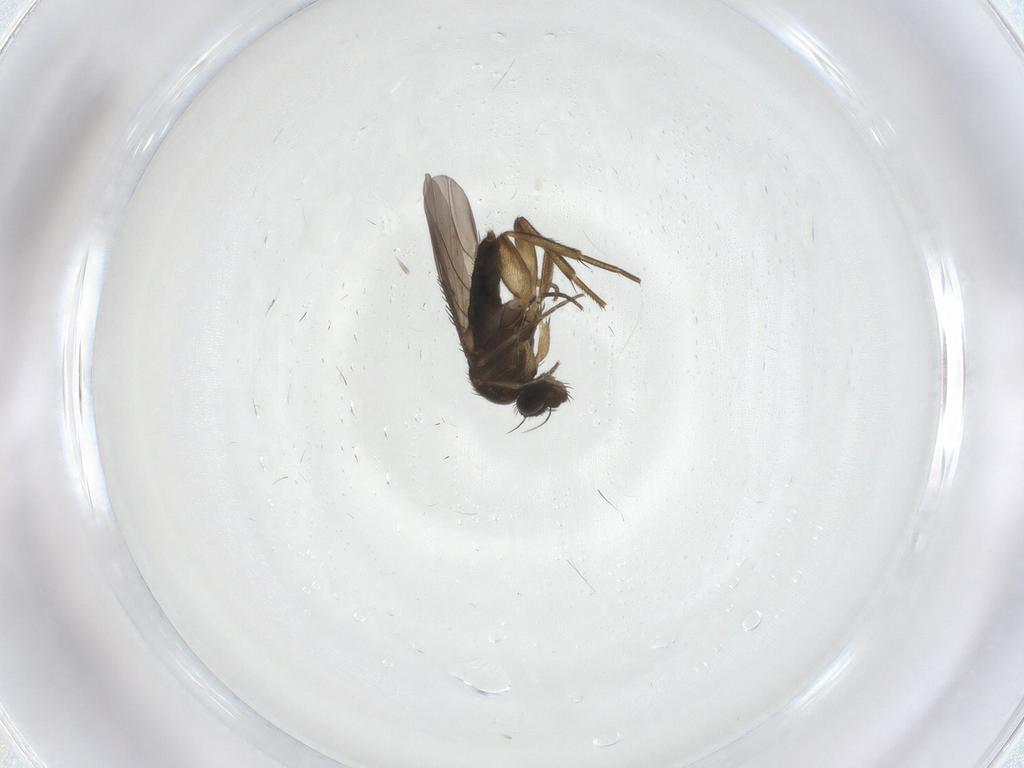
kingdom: Animalia
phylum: Arthropoda
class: Insecta
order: Diptera
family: Phoridae
